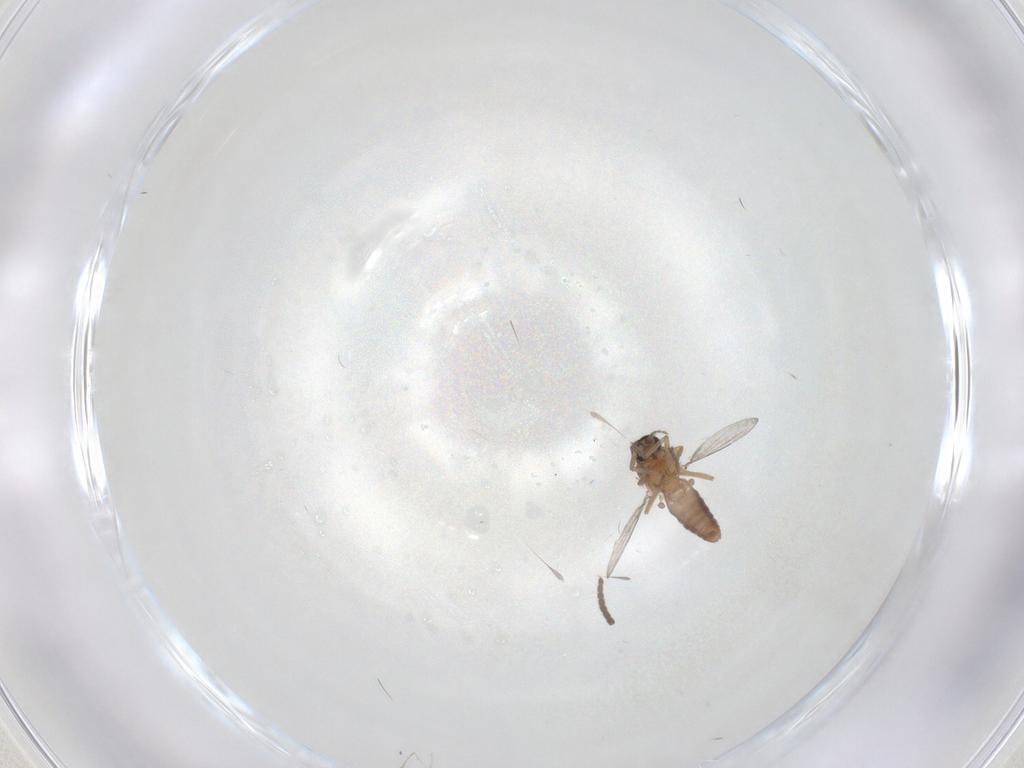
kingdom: Animalia
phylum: Arthropoda
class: Insecta
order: Diptera
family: Ceratopogonidae
